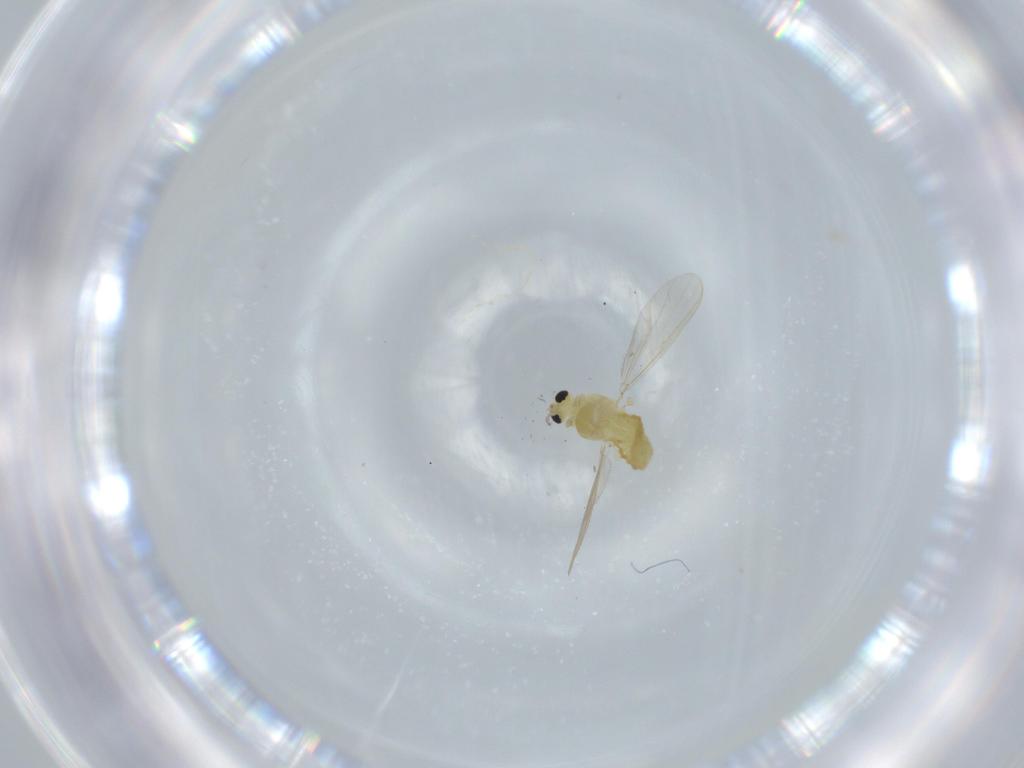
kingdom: Animalia
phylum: Arthropoda
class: Insecta
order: Diptera
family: Chironomidae
